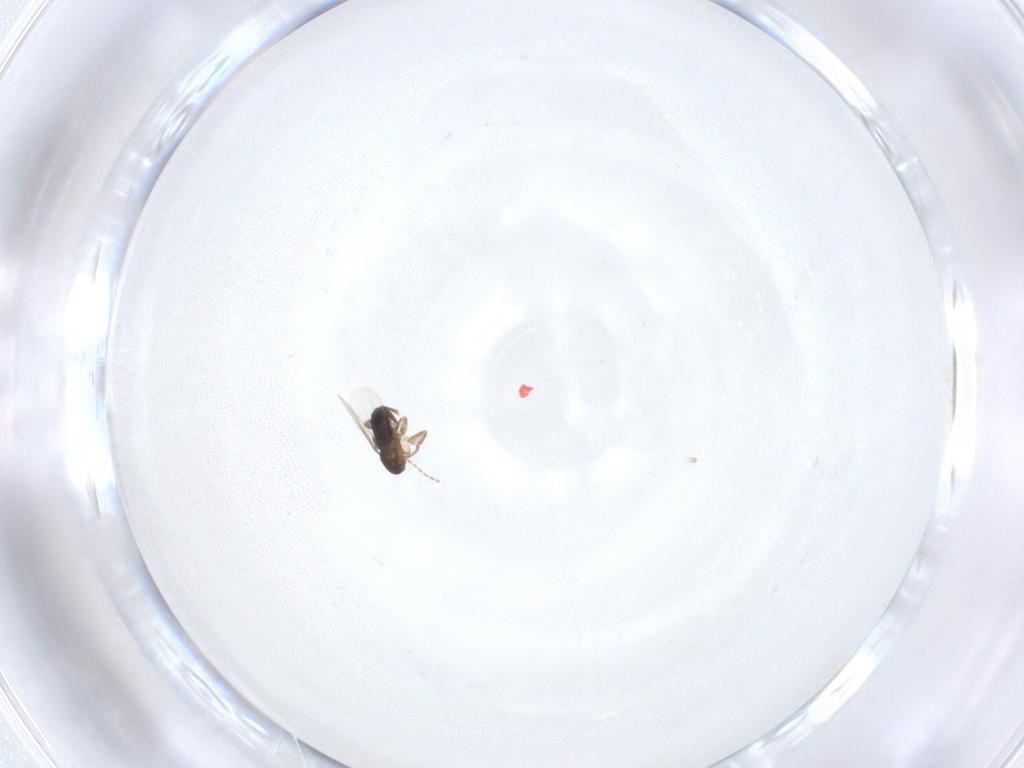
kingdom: Animalia
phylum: Arthropoda
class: Insecta
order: Diptera
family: Phoridae
